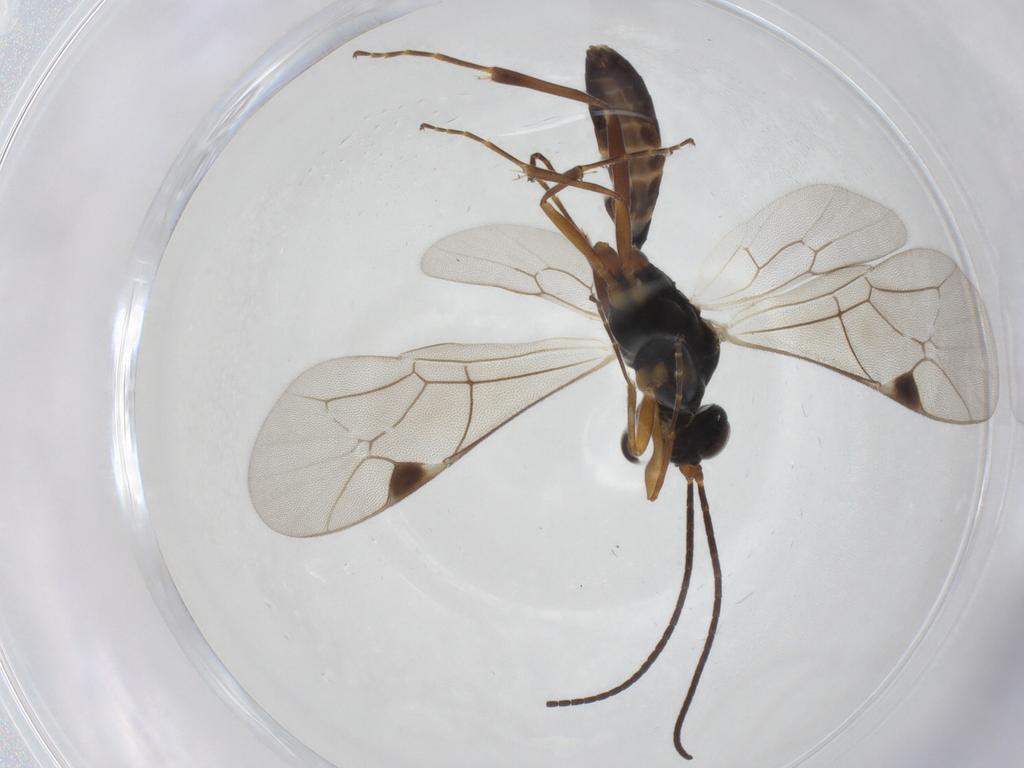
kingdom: Animalia
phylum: Arthropoda
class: Insecta
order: Hymenoptera
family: Ichneumonidae
